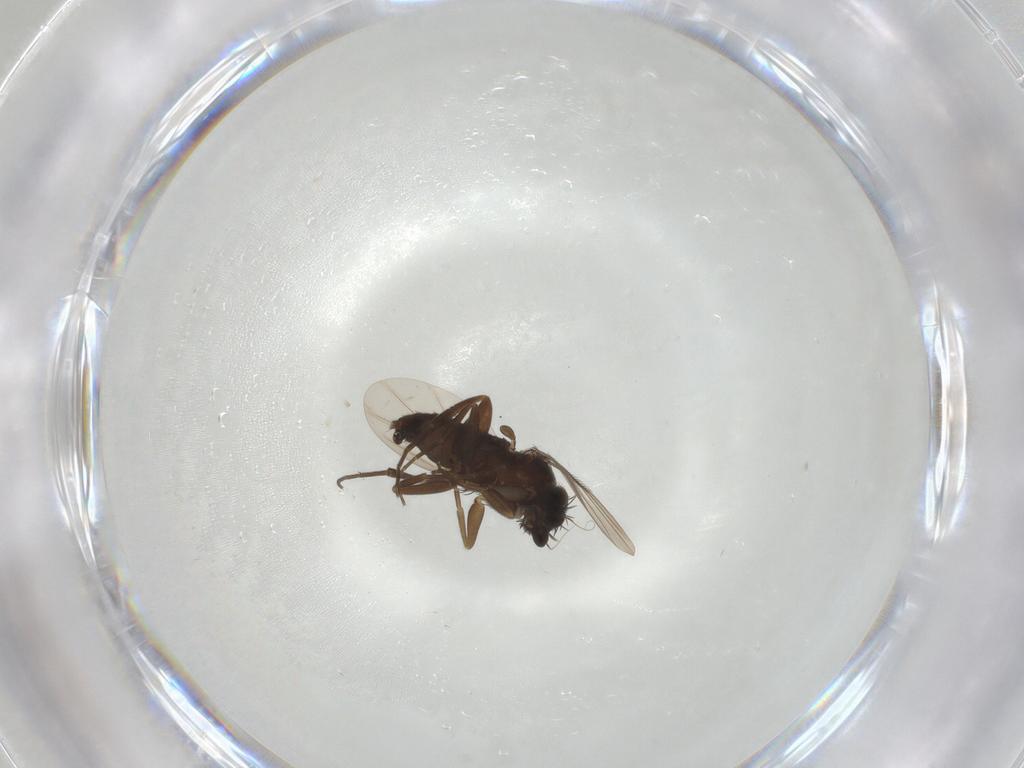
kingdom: Animalia
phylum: Arthropoda
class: Insecta
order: Diptera
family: Phoridae
